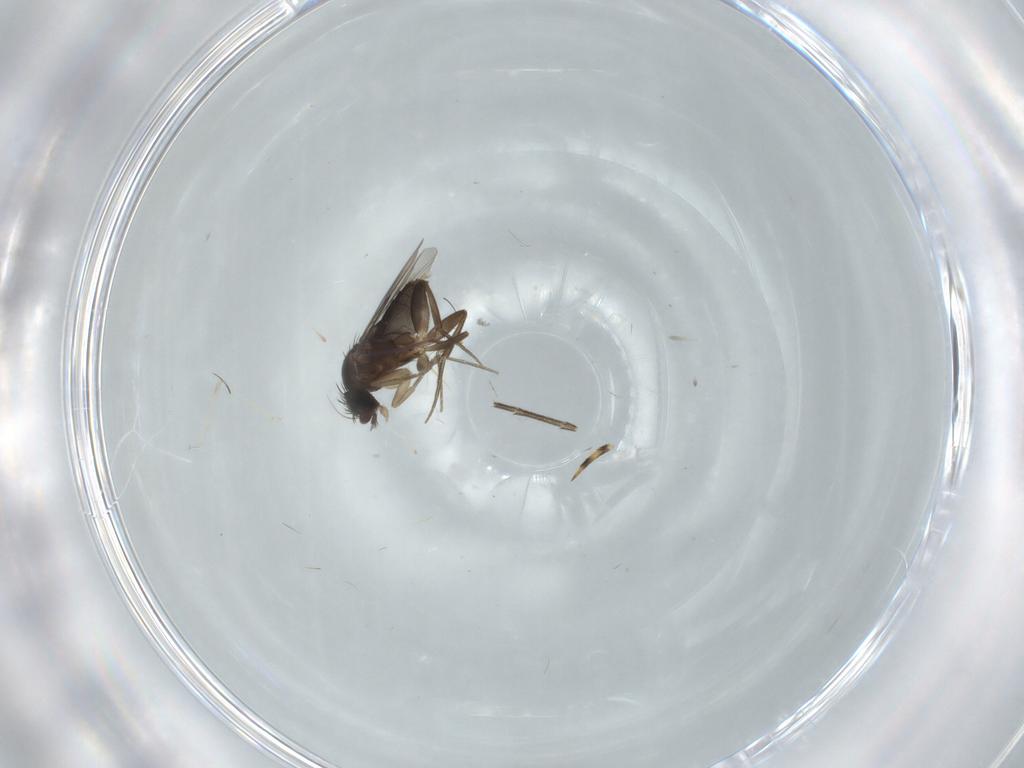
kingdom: Animalia
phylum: Arthropoda
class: Insecta
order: Diptera
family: Phoridae
